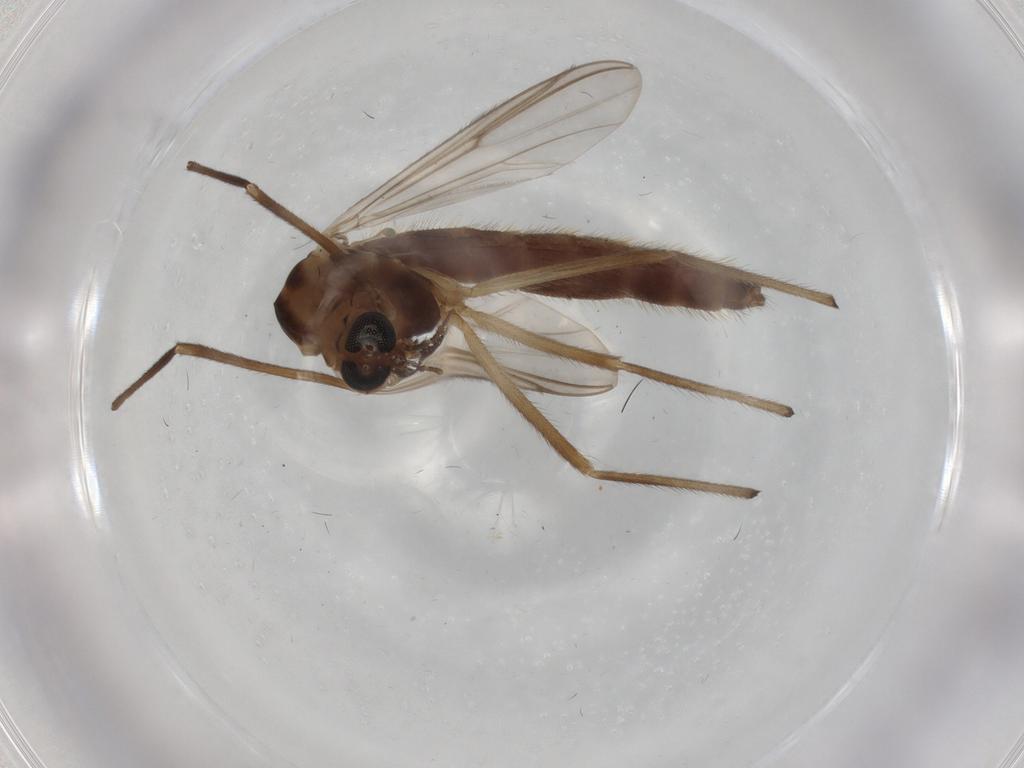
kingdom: Animalia
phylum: Arthropoda
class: Insecta
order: Diptera
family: Chironomidae
